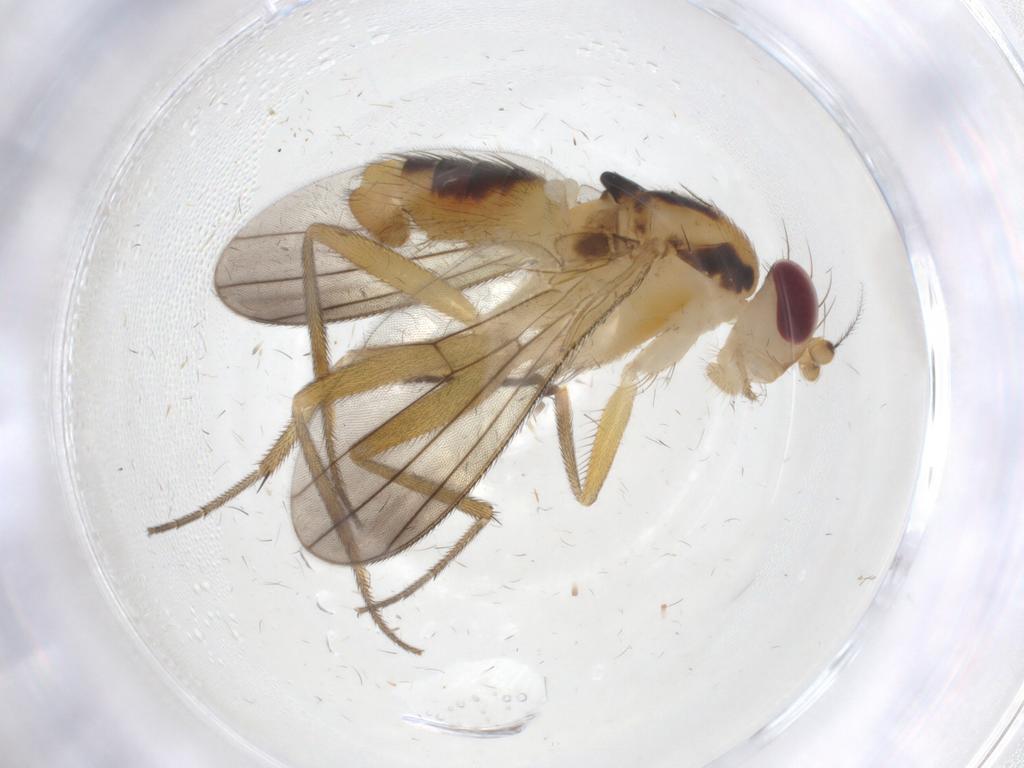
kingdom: Animalia
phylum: Arthropoda
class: Insecta
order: Diptera
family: Clusiidae
